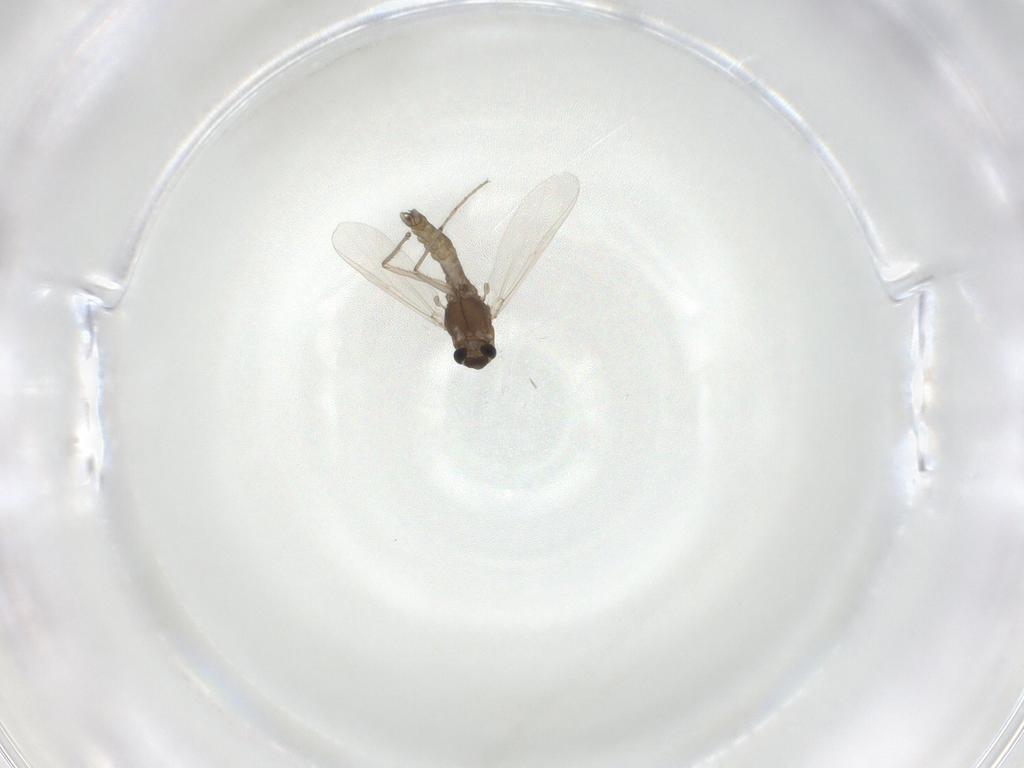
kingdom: Animalia
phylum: Arthropoda
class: Insecta
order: Diptera
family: Chironomidae
